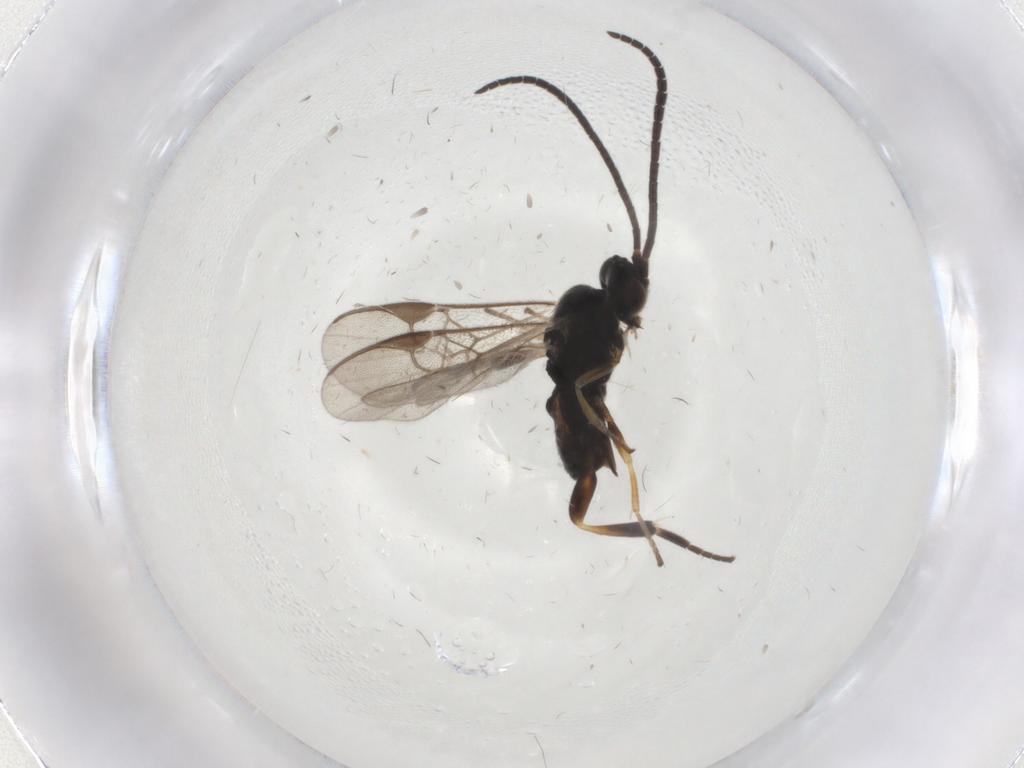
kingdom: Animalia
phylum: Arthropoda
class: Insecta
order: Hymenoptera
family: Braconidae
